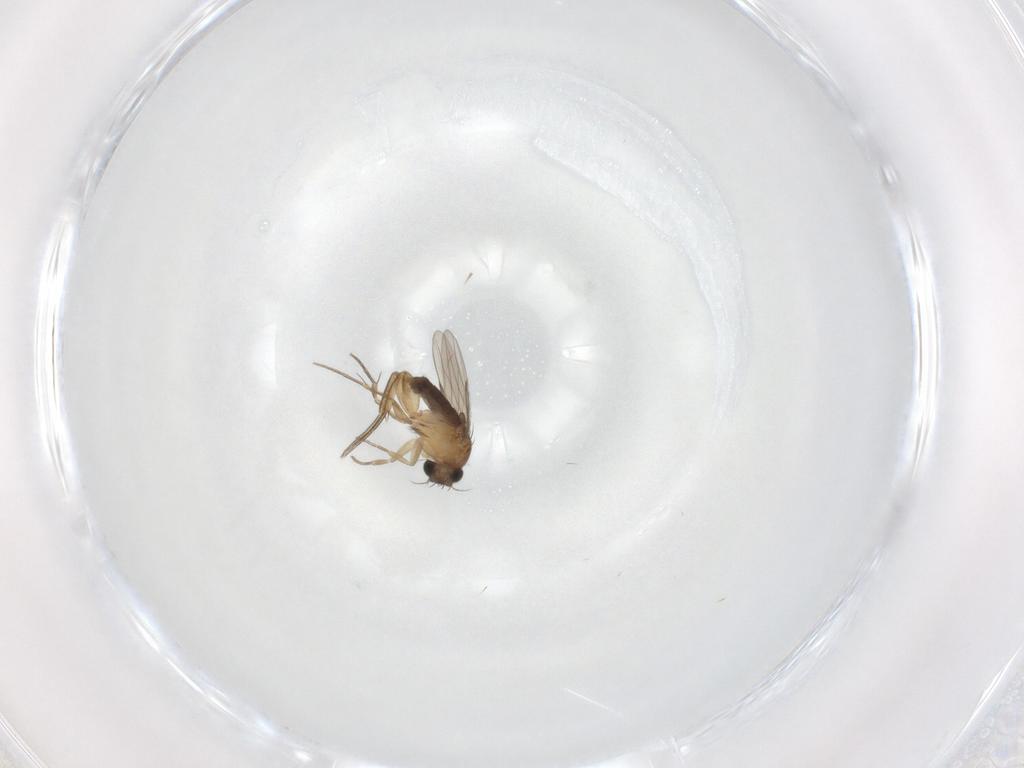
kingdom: Animalia
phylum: Arthropoda
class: Insecta
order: Diptera
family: Phoridae
